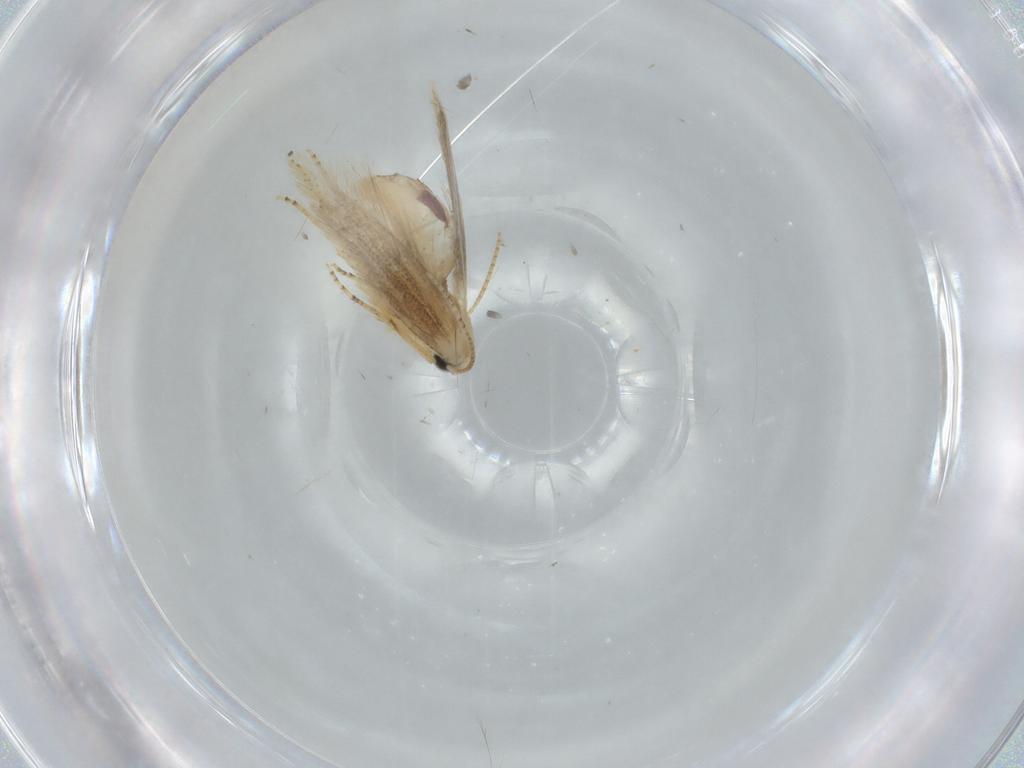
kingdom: Animalia
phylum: Arthropoda
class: Insecta
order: Lepidoptera
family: Bucculatricidae
